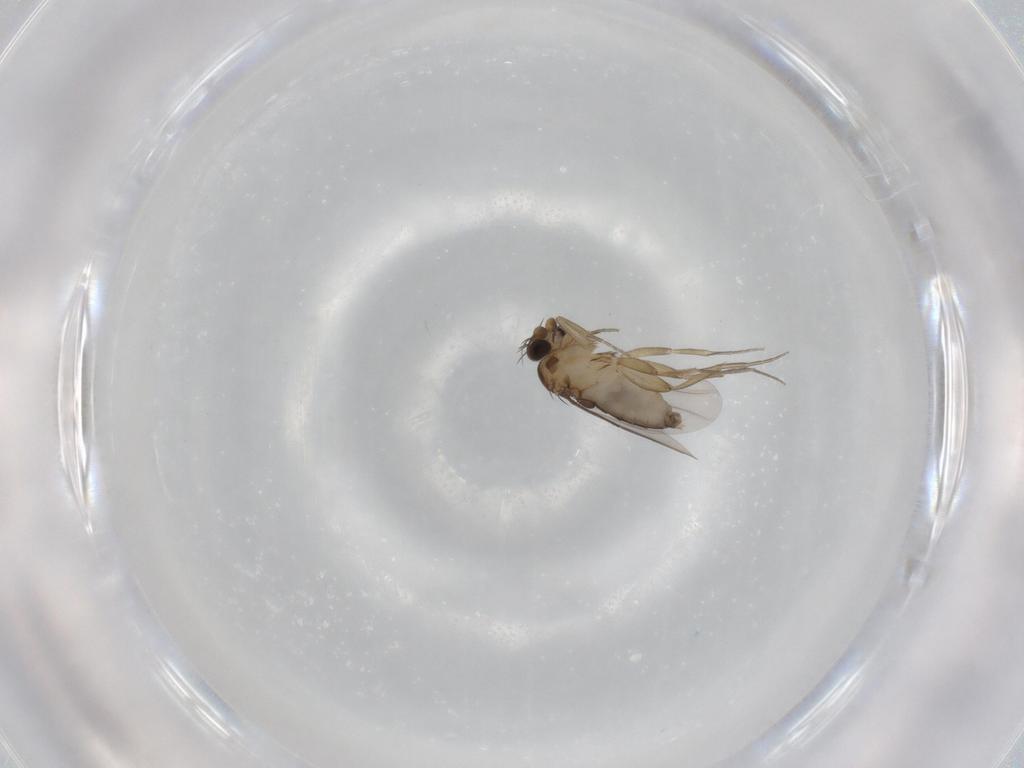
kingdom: Animalia
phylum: Arthropoda
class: Insecta
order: Diptera
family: Phoridae
